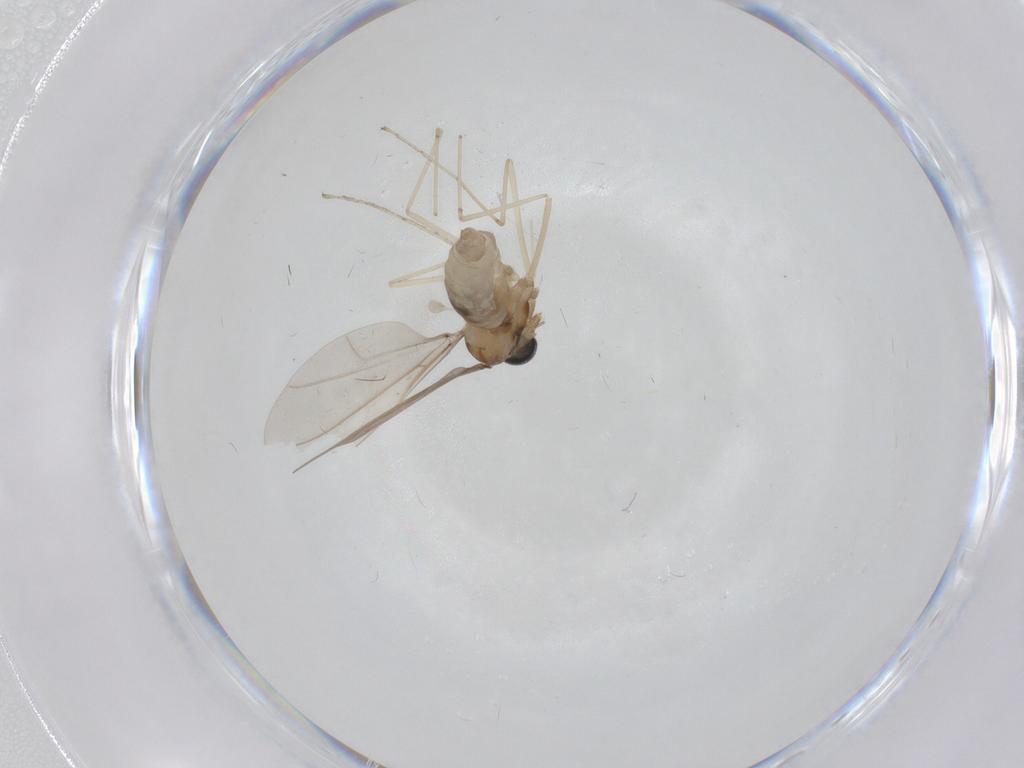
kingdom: Animalia
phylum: Arthropoda
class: Insecta
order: Diptera
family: Cecidomyiidae
